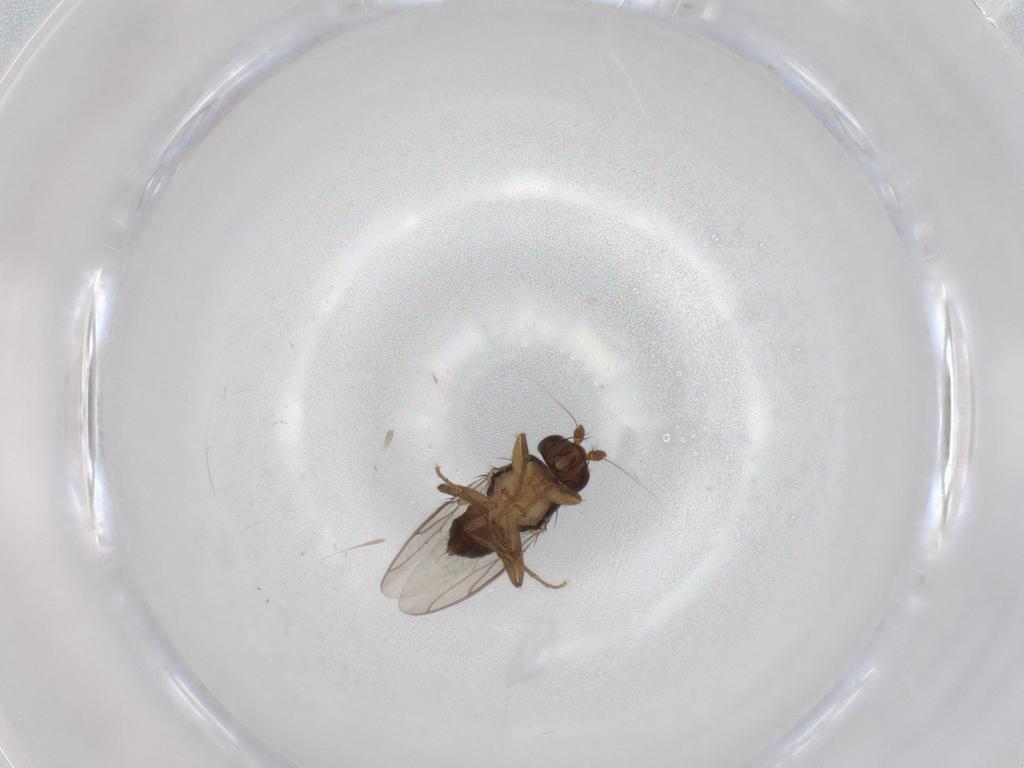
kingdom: Animalia
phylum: Arthropoda
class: Insecta
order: Diptera
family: Sphaeroceridae
